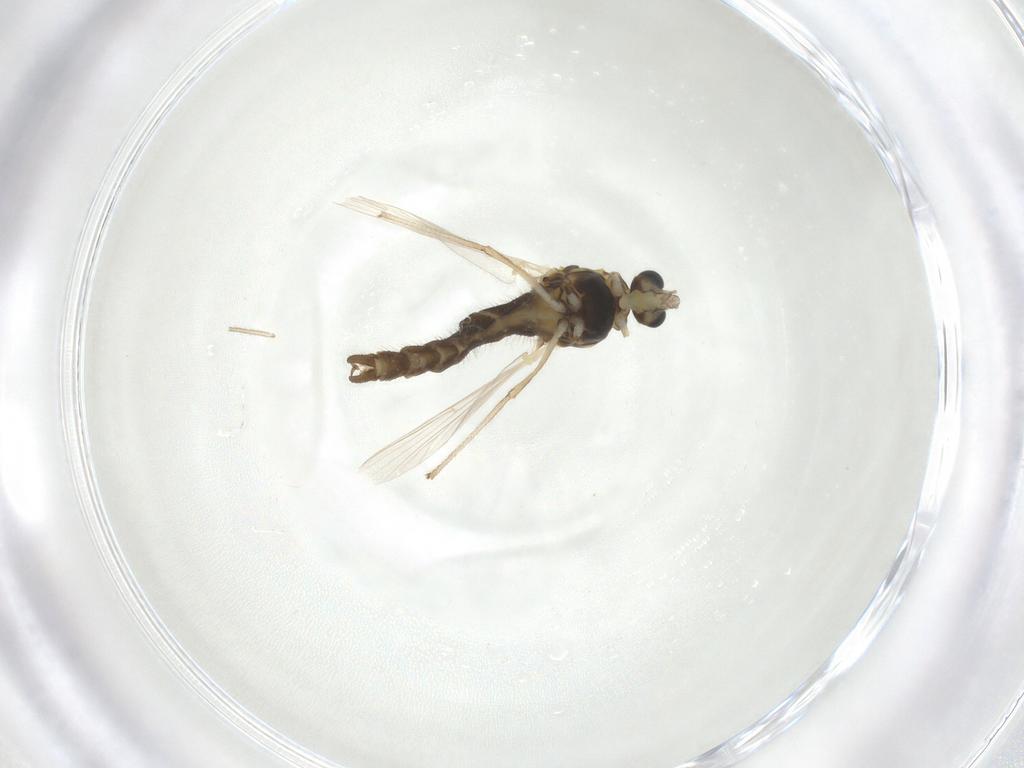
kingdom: Animalia
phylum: Arthropoda
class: Insecta
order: Diptera
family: Chironomidae
